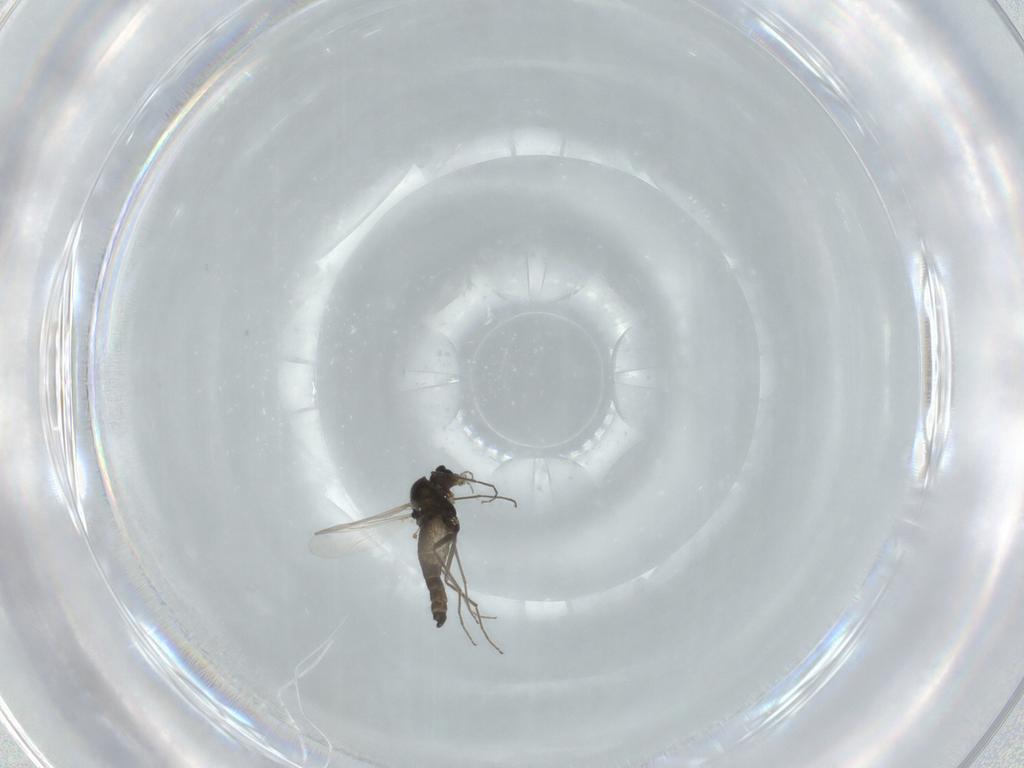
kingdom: Animalia
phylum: Arthropoda
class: Insecta
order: Diptera
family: Chironomidae
